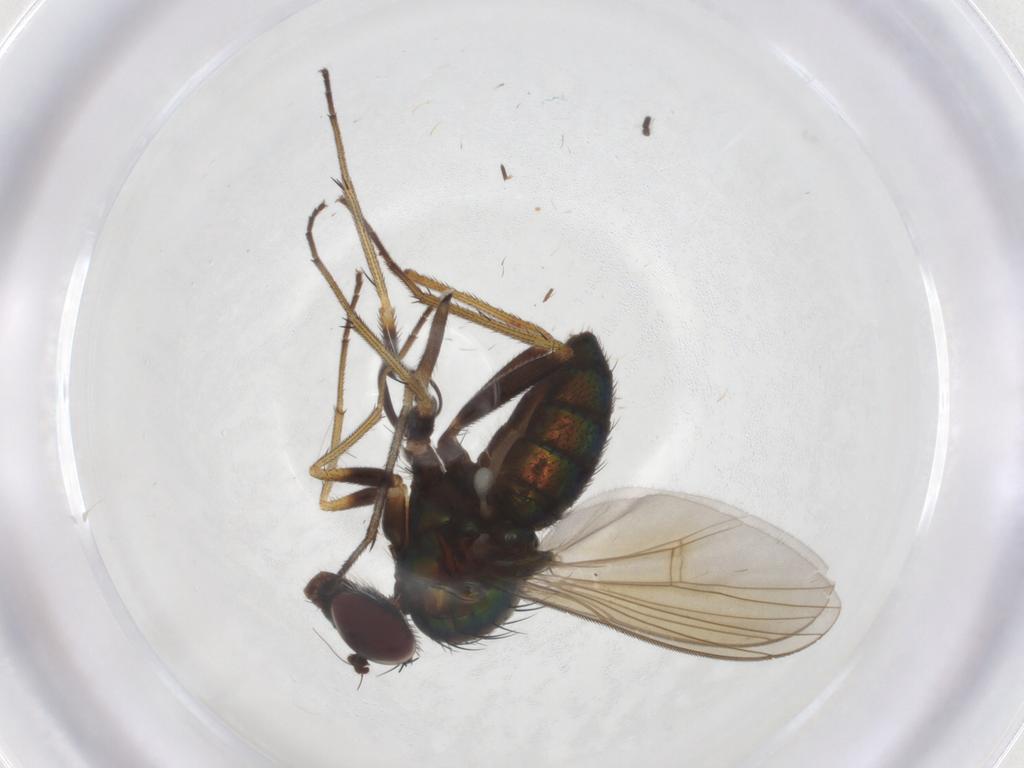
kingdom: Animalia
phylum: Arthropoda
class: Insecta
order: Diptera
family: Dolichopodidae
